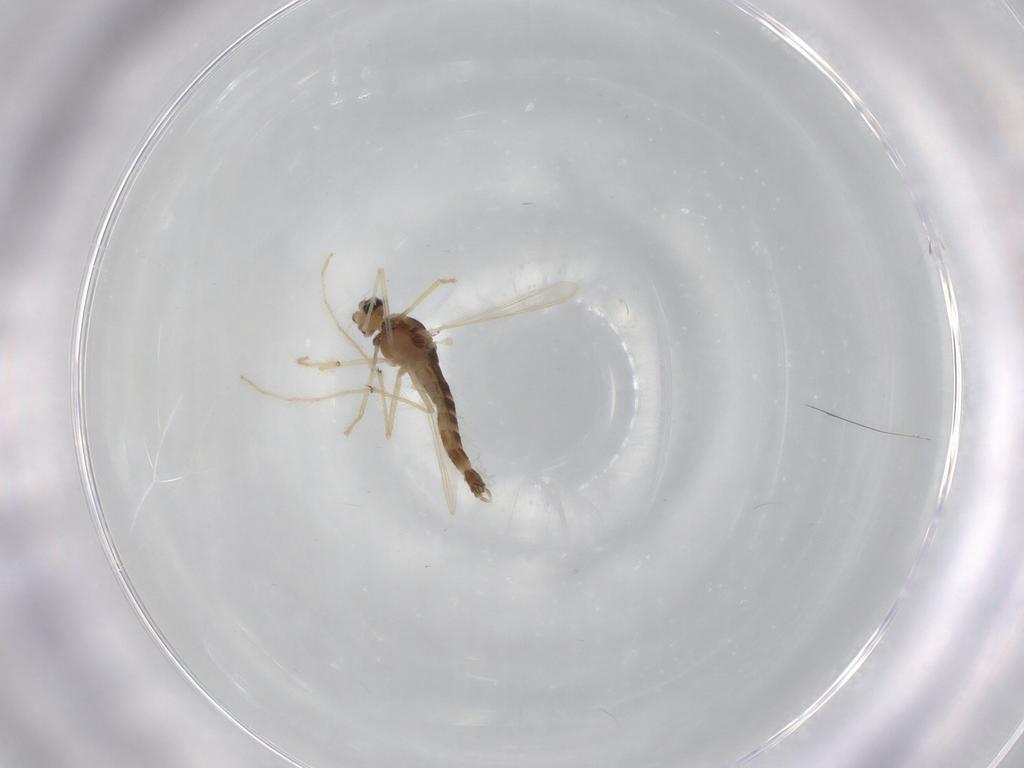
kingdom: Animalia
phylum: Arthropoda
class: Insecta
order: Diptera
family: Chironomidae
